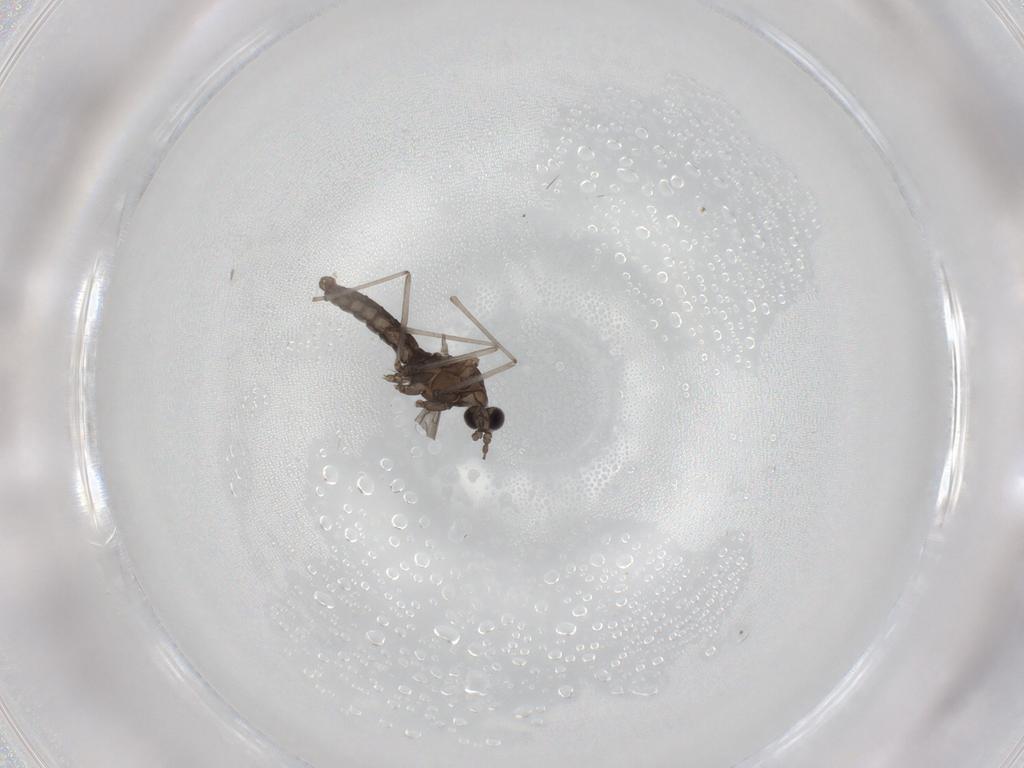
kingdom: Animalia
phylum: Arthropoda
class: Insecta
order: Diptera
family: Cecidomyiidae
